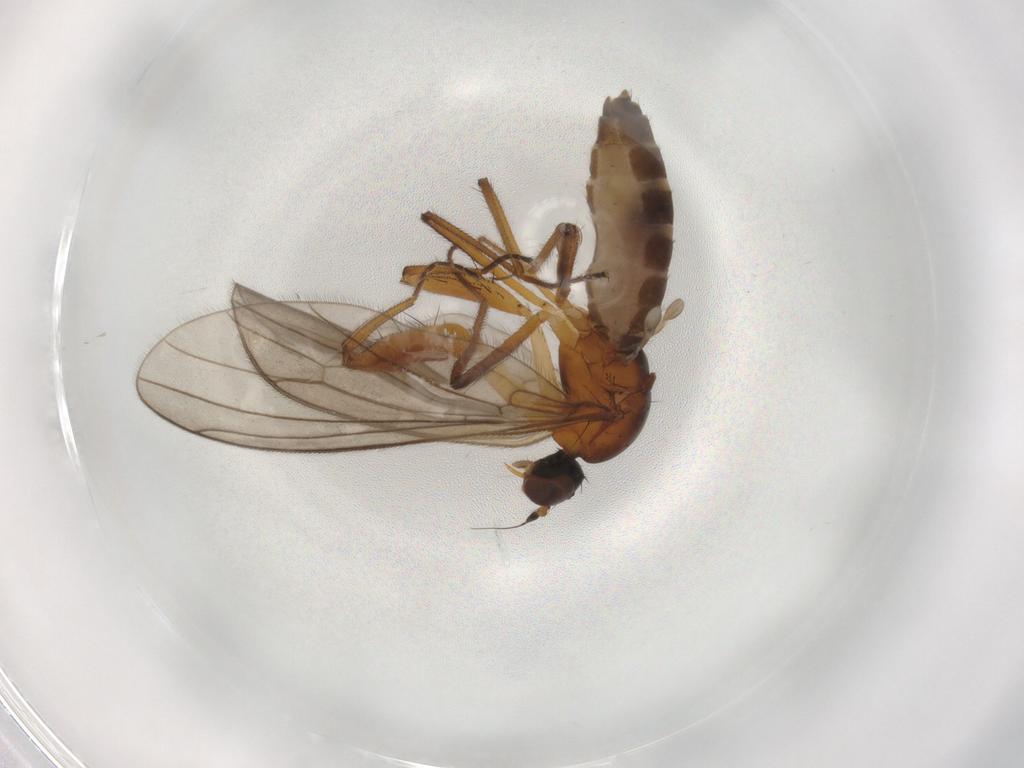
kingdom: Animalia
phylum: Arthropoda
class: Insecta
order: Diptera
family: Empididae
